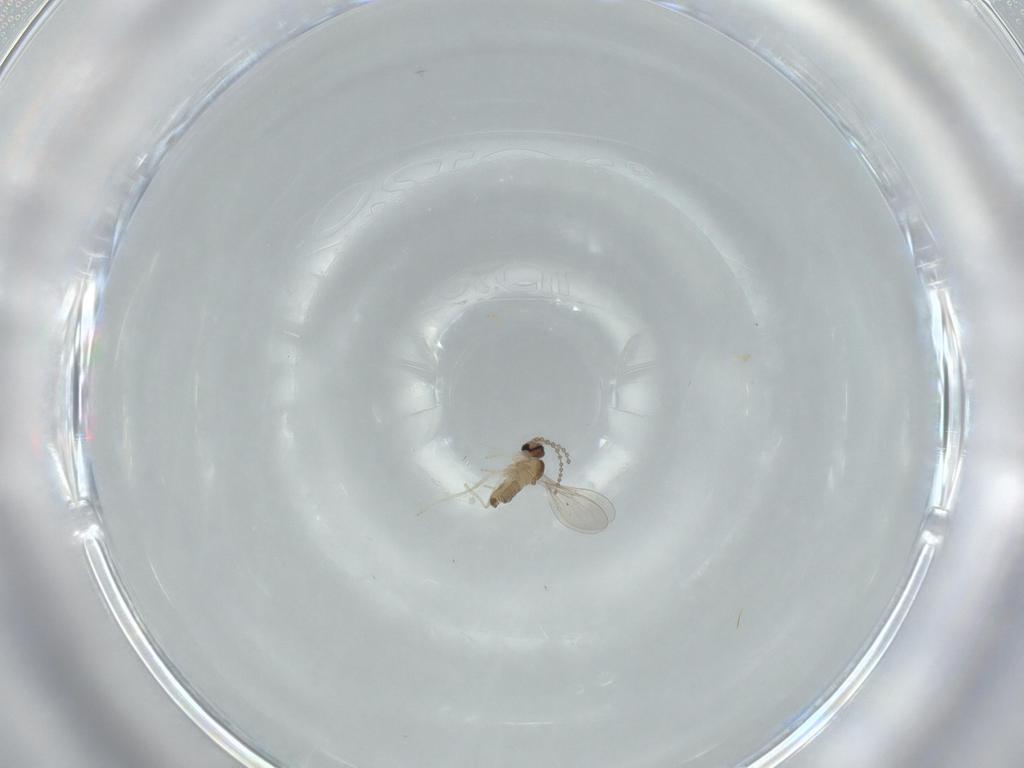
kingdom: Animalia
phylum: Arthropoda
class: Insecta
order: Diptera
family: Cecidomyiidae
